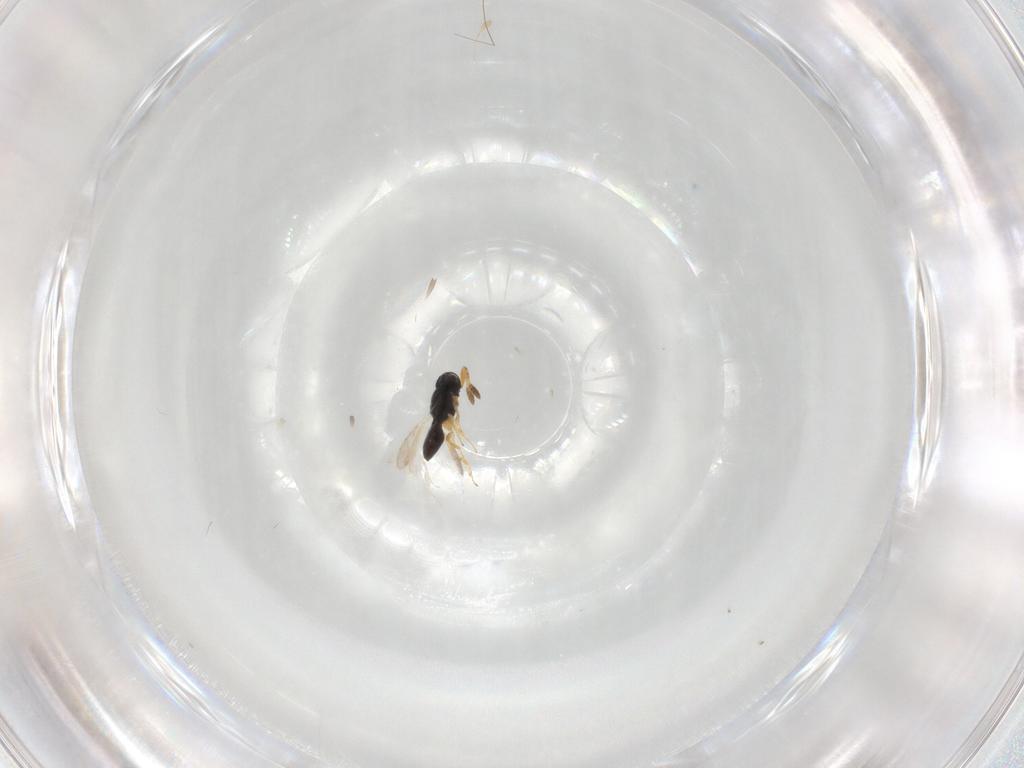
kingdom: Animalia
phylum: Arthropoda
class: Insecta
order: Hymenoptera
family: Scelionidae
